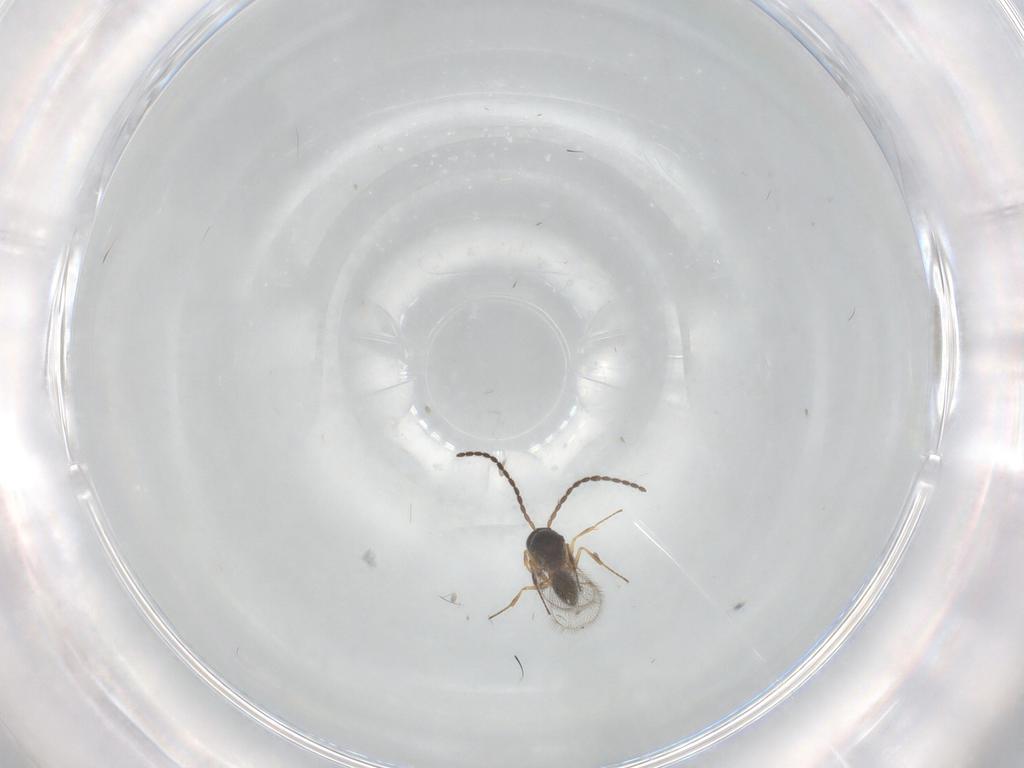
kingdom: Animalia
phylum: Arthropoda
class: Insecta
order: Hymenoptera
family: Figitidae
